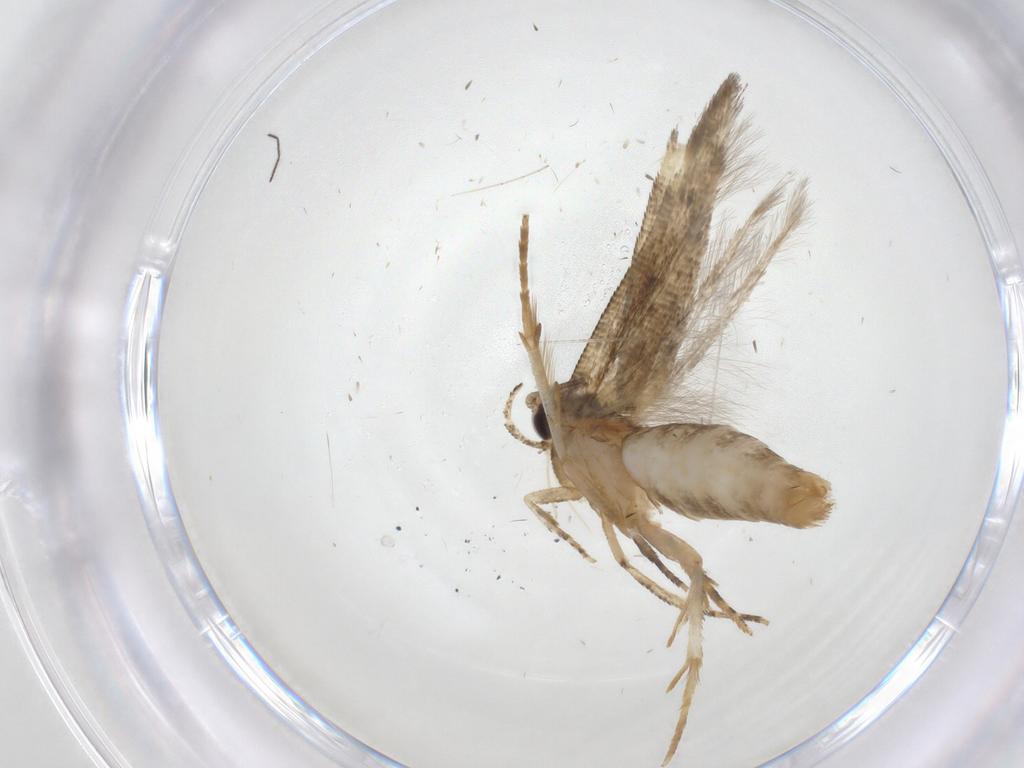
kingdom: Animalia
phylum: Arthropoda
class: Insecta
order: Lepidoptera
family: Gelechiidae
